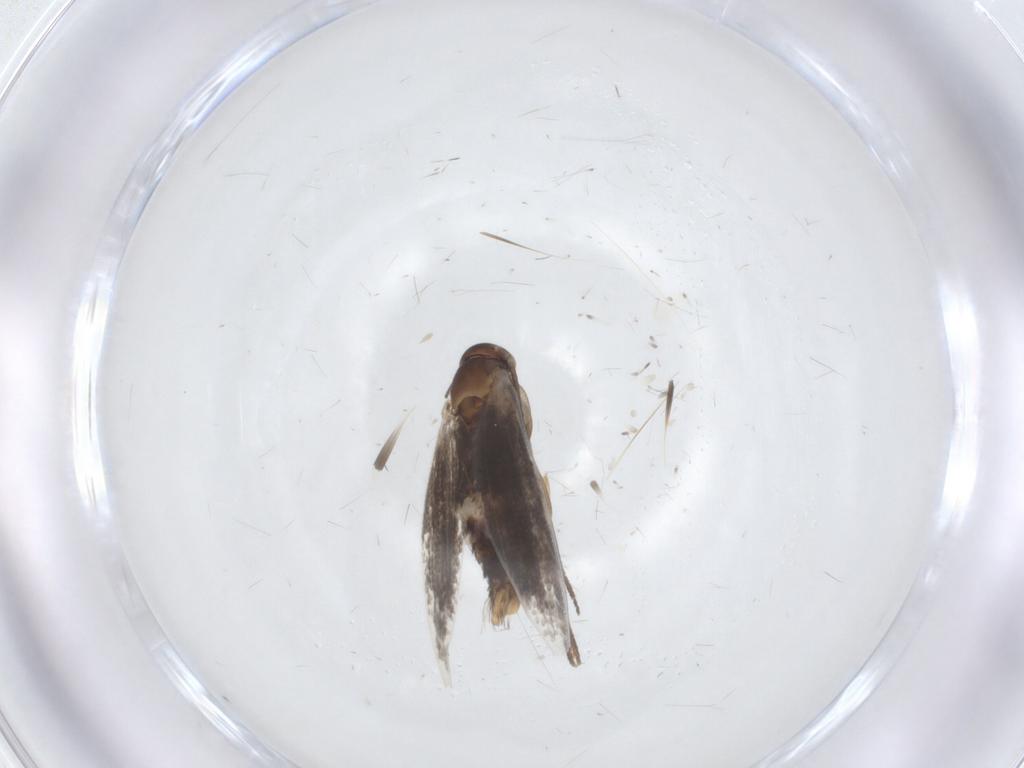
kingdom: Animalia
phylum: Arthropoda
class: Insecta
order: Lepidoptera
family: Elachistidae
